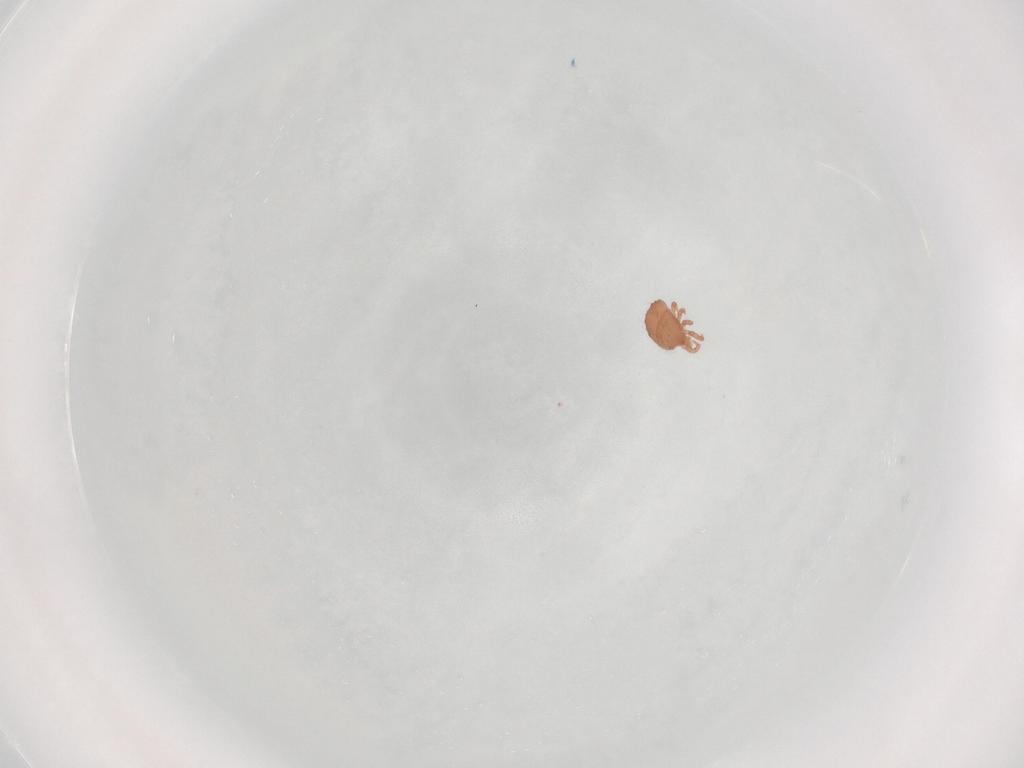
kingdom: Animalia
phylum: Arthropoda
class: Arachnida
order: Mesostigmata
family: Zerconidae
